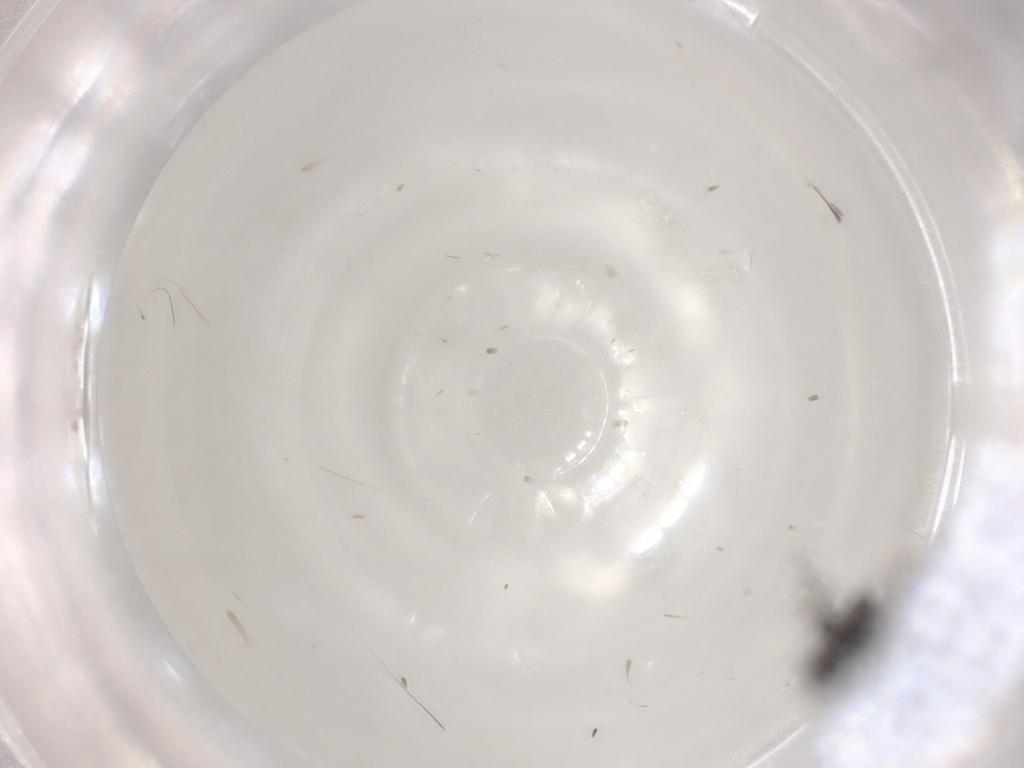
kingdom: Animalia
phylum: Arthropoda
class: Insecta
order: Diptera
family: Chironomidae
